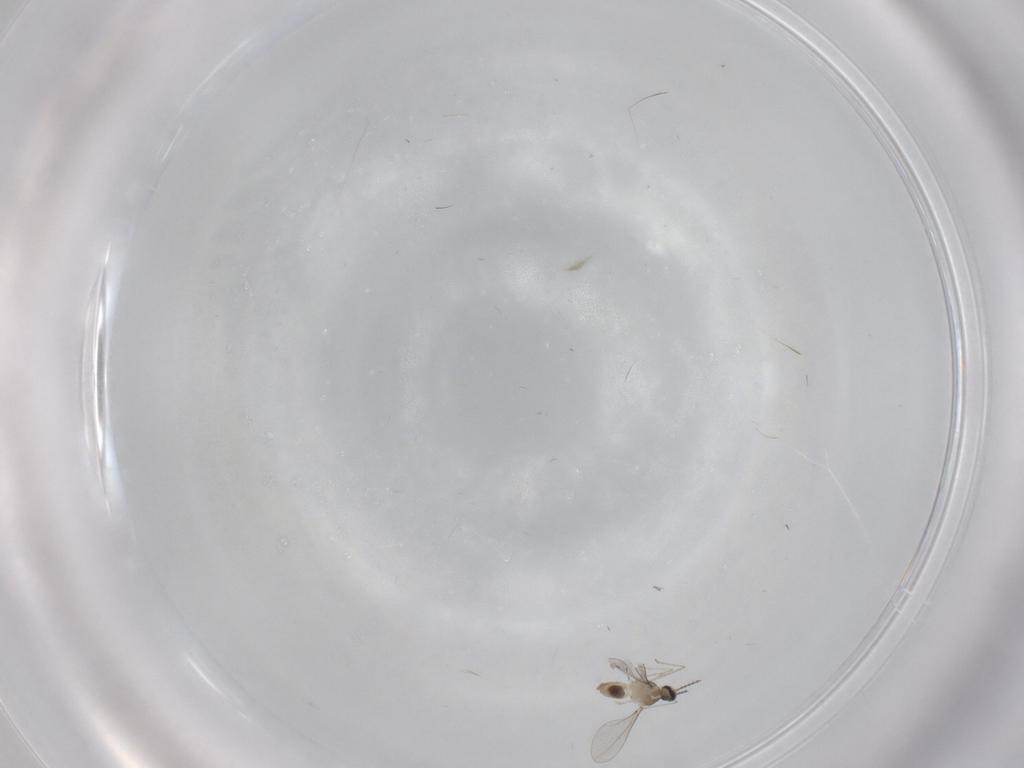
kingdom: Animalia
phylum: Arthropoda
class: Insecta
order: Diptera
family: Cecidomyiidae
